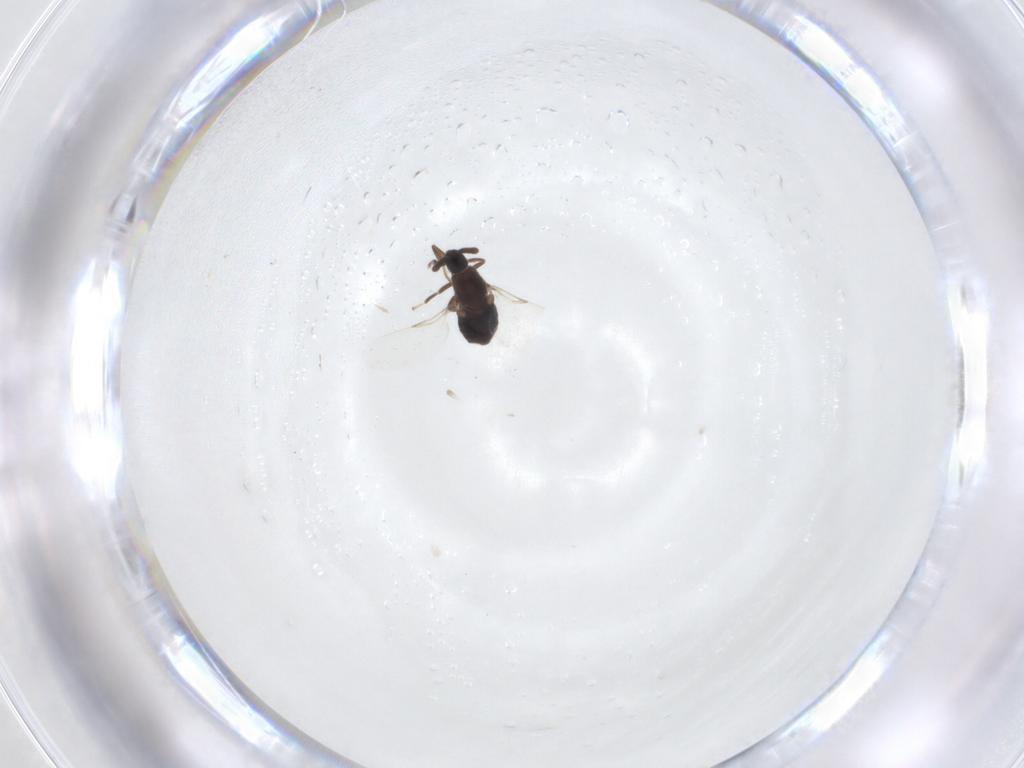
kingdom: Animalia
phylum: Arthropoda
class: Insecta
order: Diptera
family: Scatopsidae
